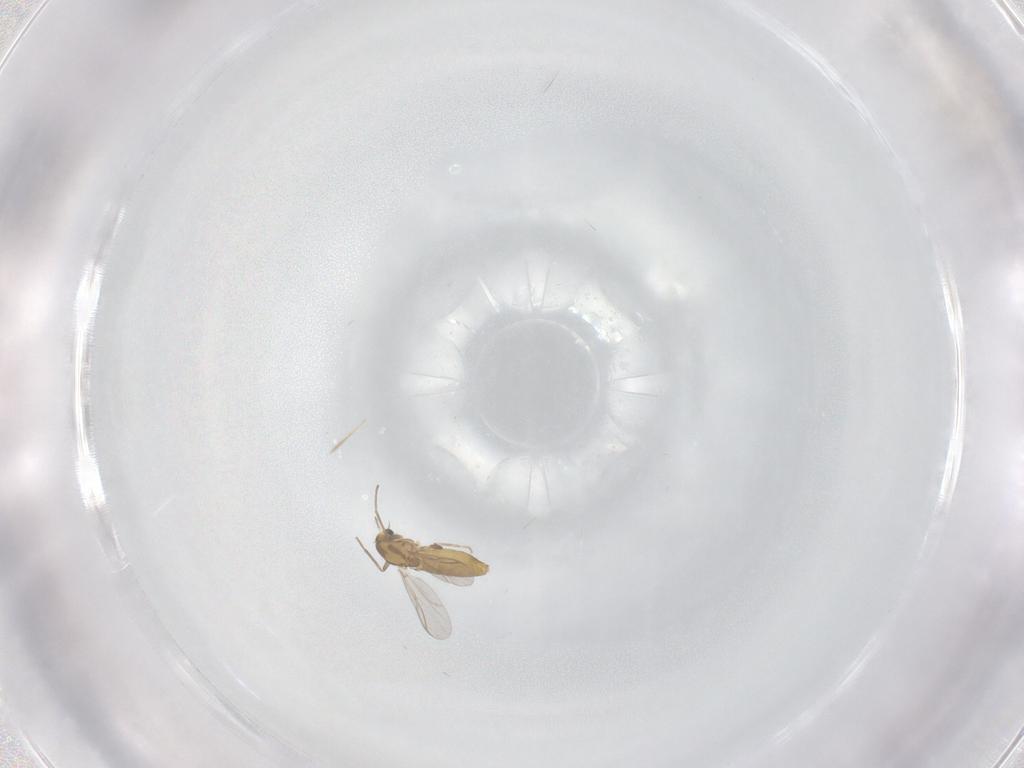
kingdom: Animalia
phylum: Arthropoda
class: Insecta
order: Diptera
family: Chironomidae
